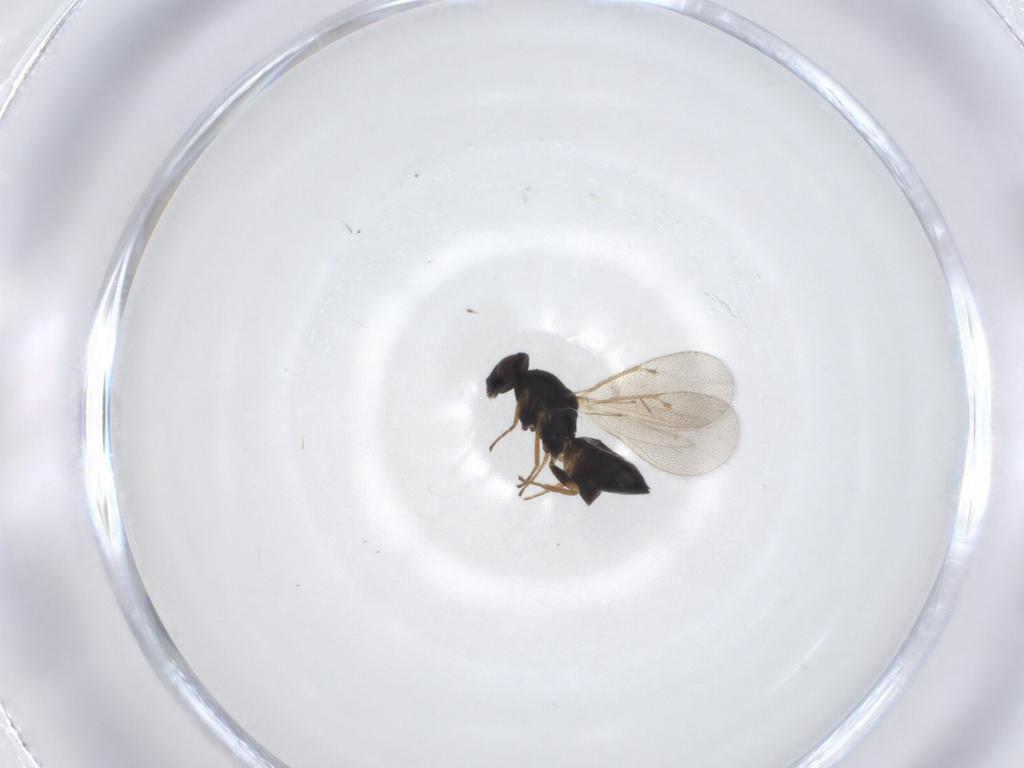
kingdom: Animalia
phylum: Arthropoda
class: Insecta
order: Hymenoptera
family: Eulophidae
